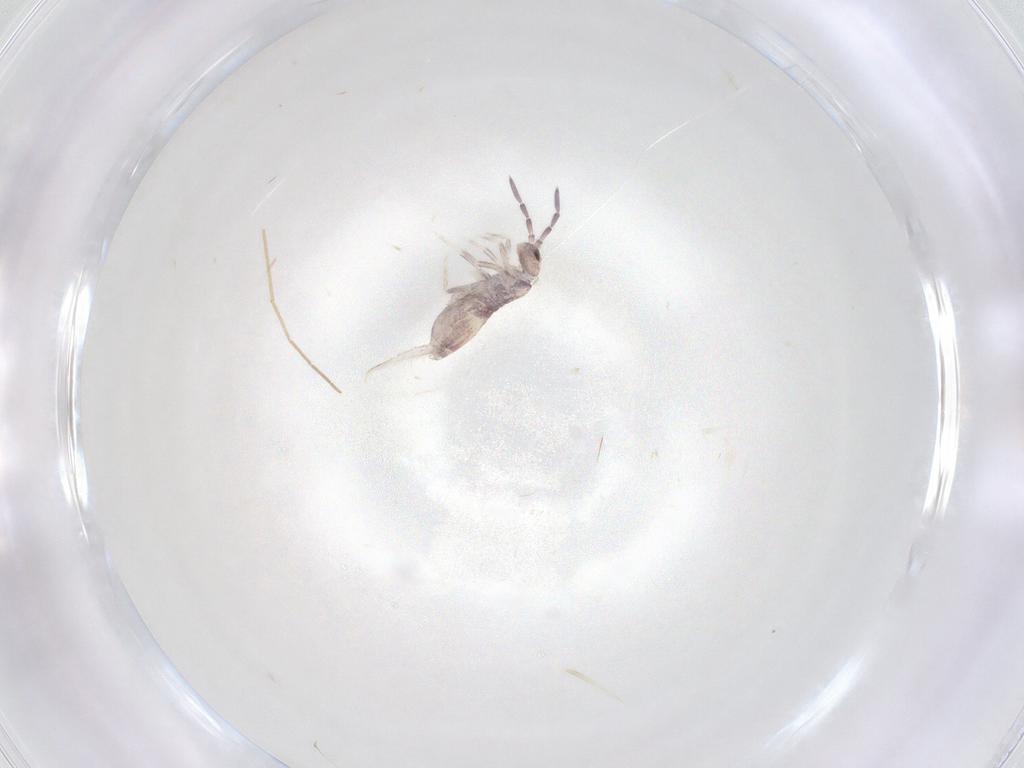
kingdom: Animalia
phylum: Arthropoda
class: Collembola
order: Poduromorpha
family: Hypogastruridae
